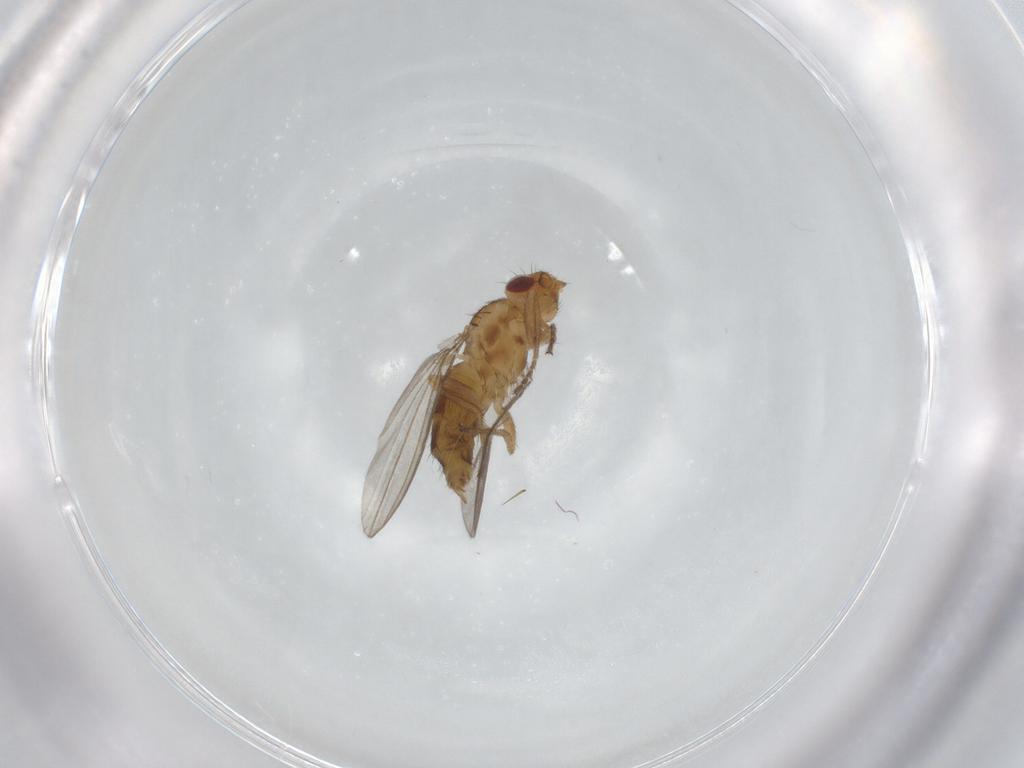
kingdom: Animalia
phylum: Arthropoda
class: Insecta
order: Diptera
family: Milichiidae
